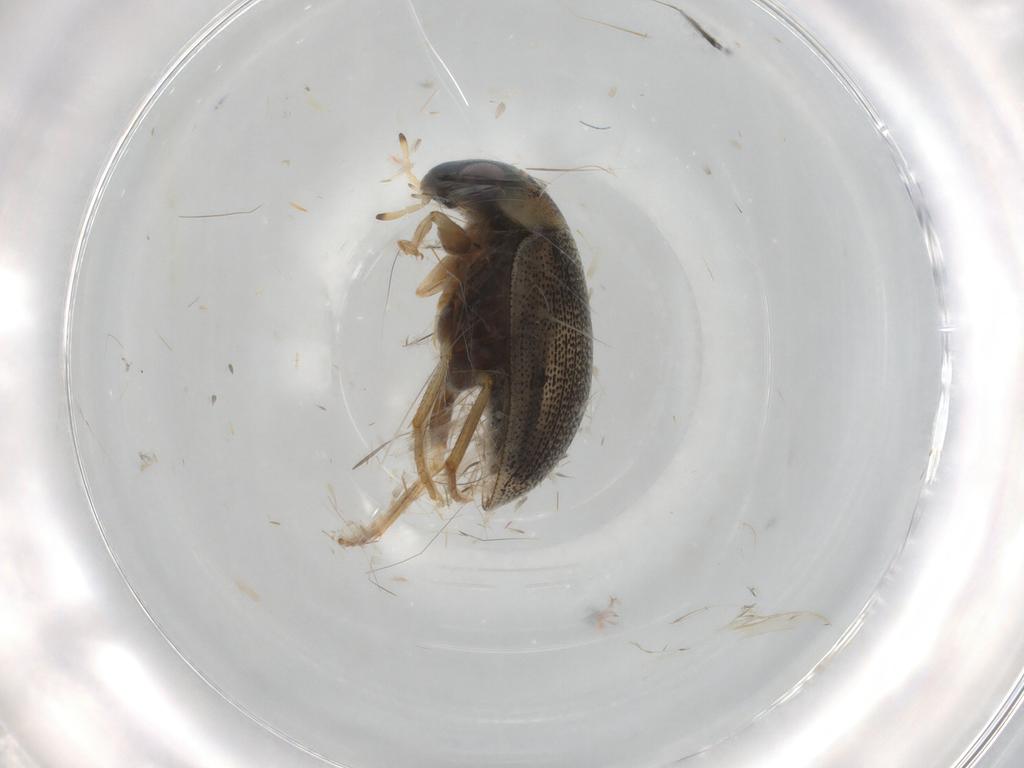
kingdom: Animalia
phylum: Arthropoda
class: Insecta
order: Coleoptera
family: Hydrophilidae
